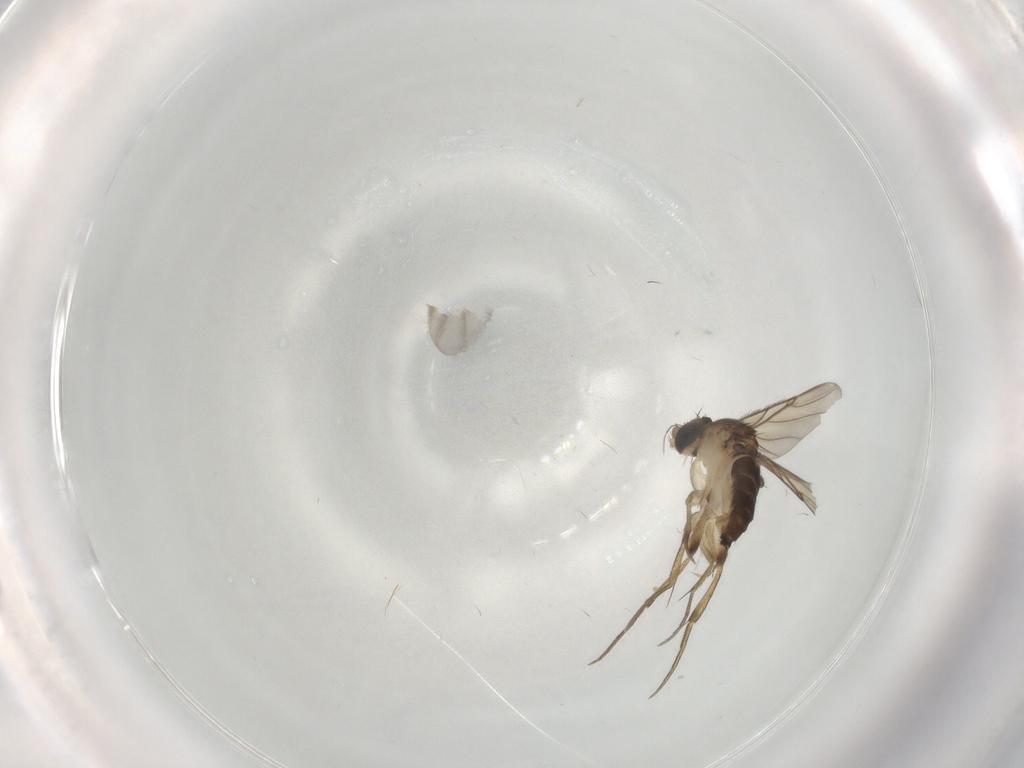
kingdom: Animalia
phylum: Arthropoda
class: Insecta
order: Diptera
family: Phoridae
